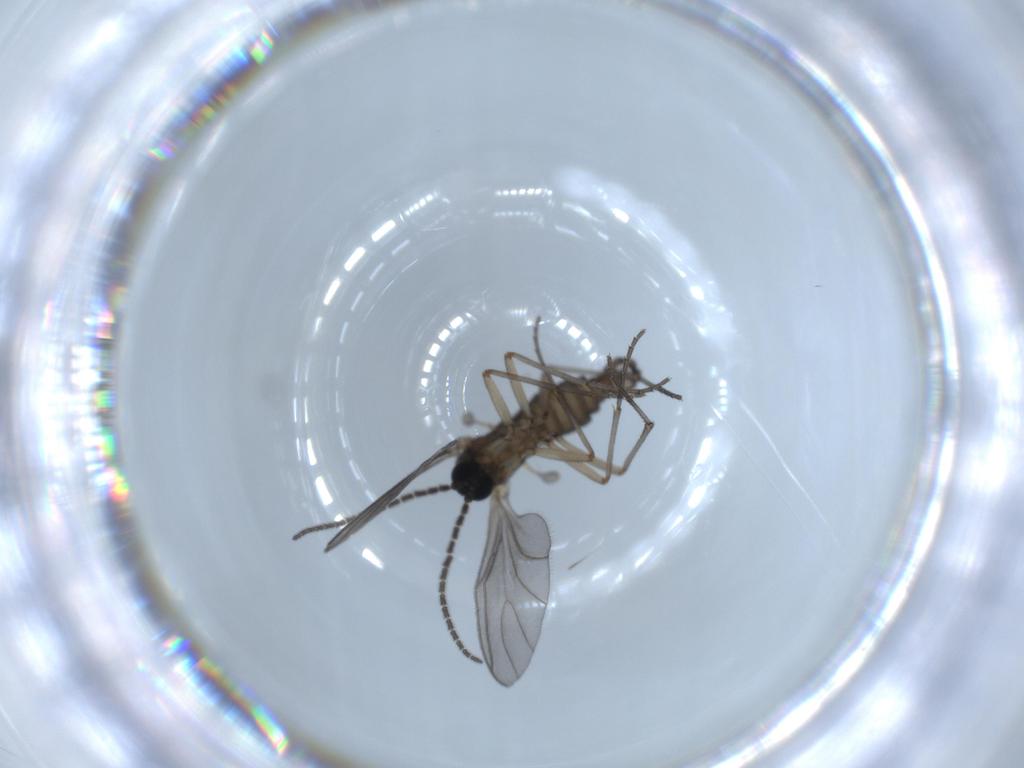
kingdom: Animalia
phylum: Arthropoda
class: Insecta
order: Diptera
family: Sciaridae
